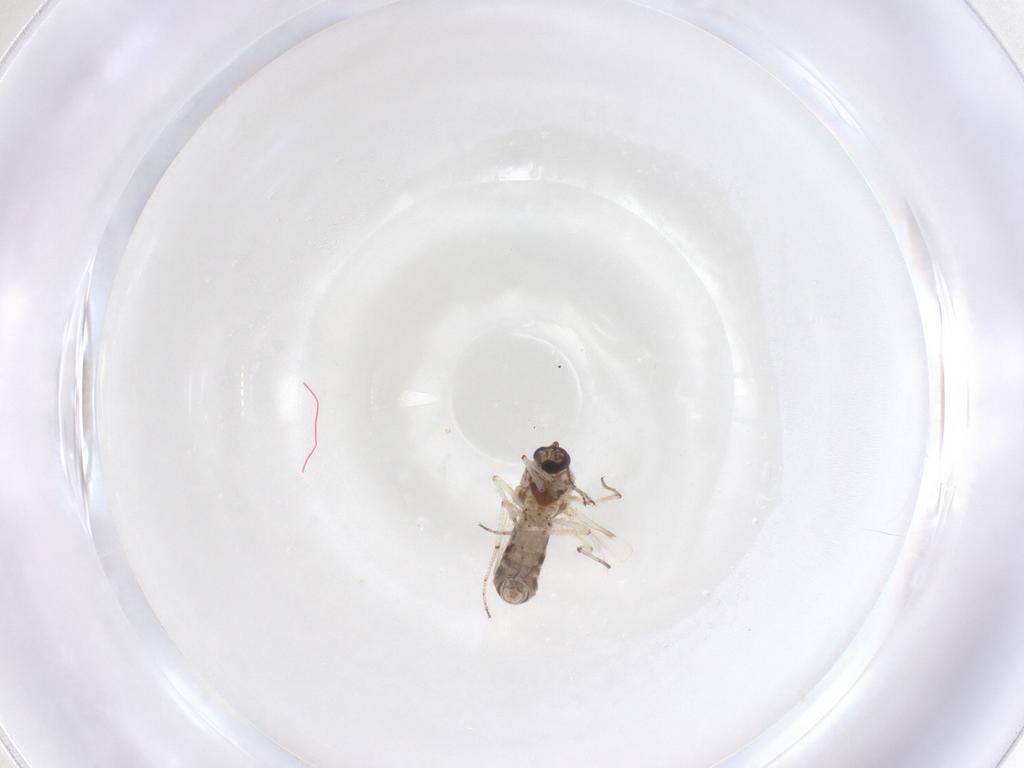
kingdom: Animalia
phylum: Arthropoda
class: Insecta
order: Diptera
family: Ceratopogonidae
